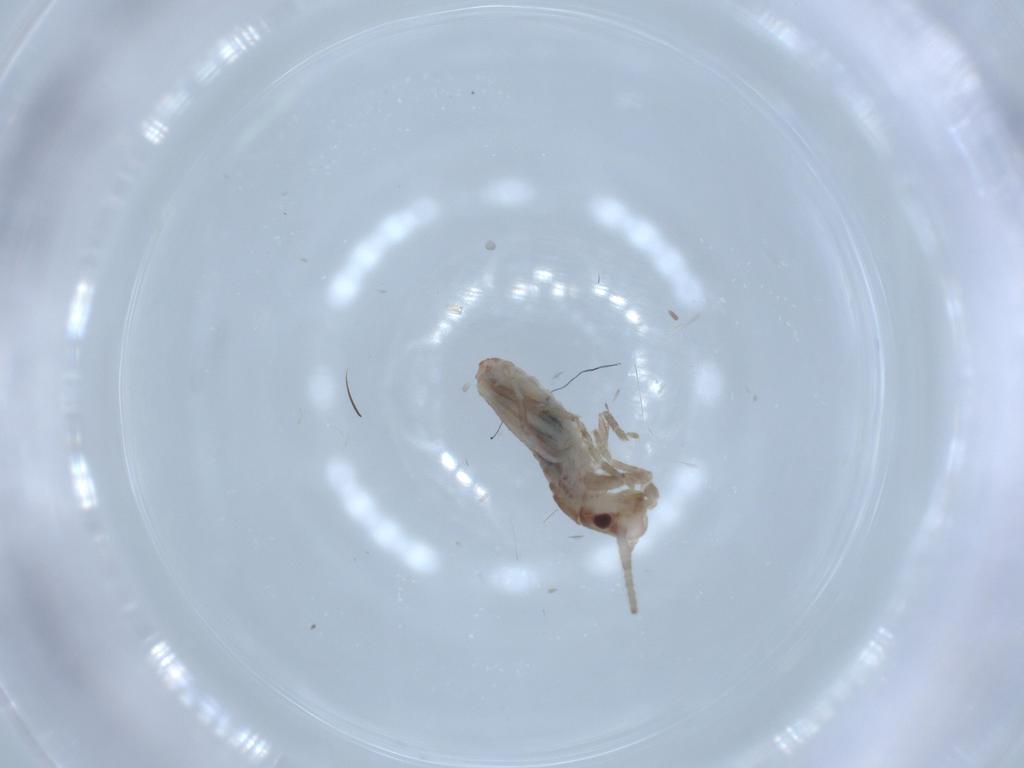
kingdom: Animalia
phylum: Arthropoda
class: Insecta
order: Orthoptera
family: Mogoplistidae
